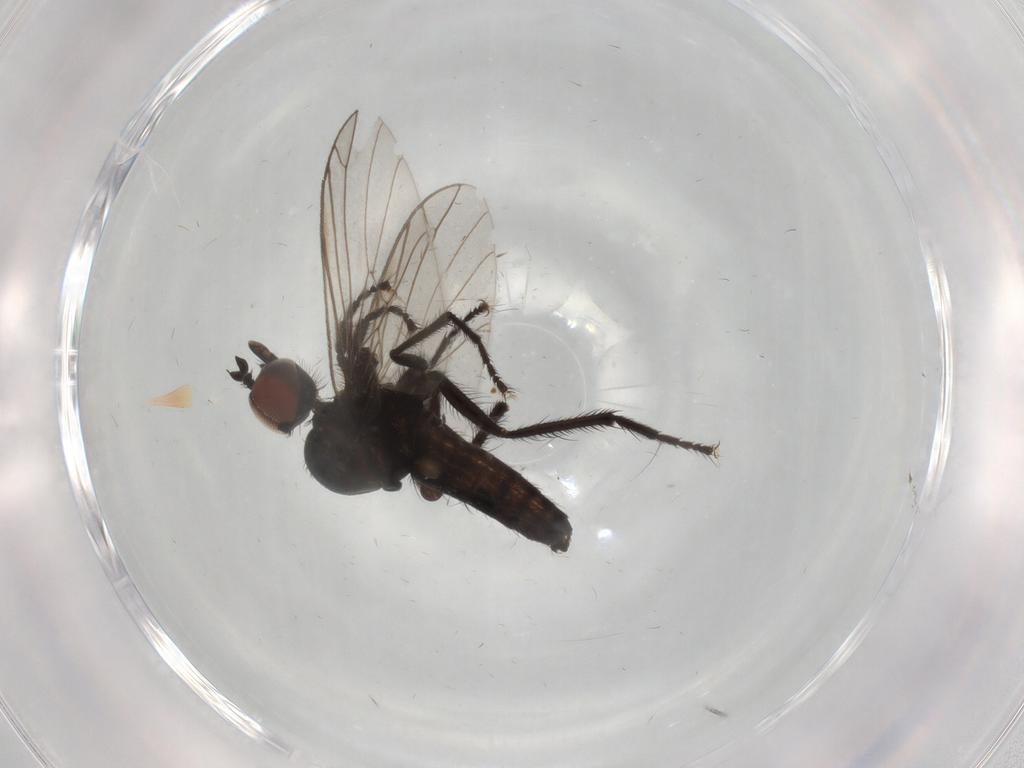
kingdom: Animalia
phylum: Arthropoda
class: Insecta
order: Diptera
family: Empididae
